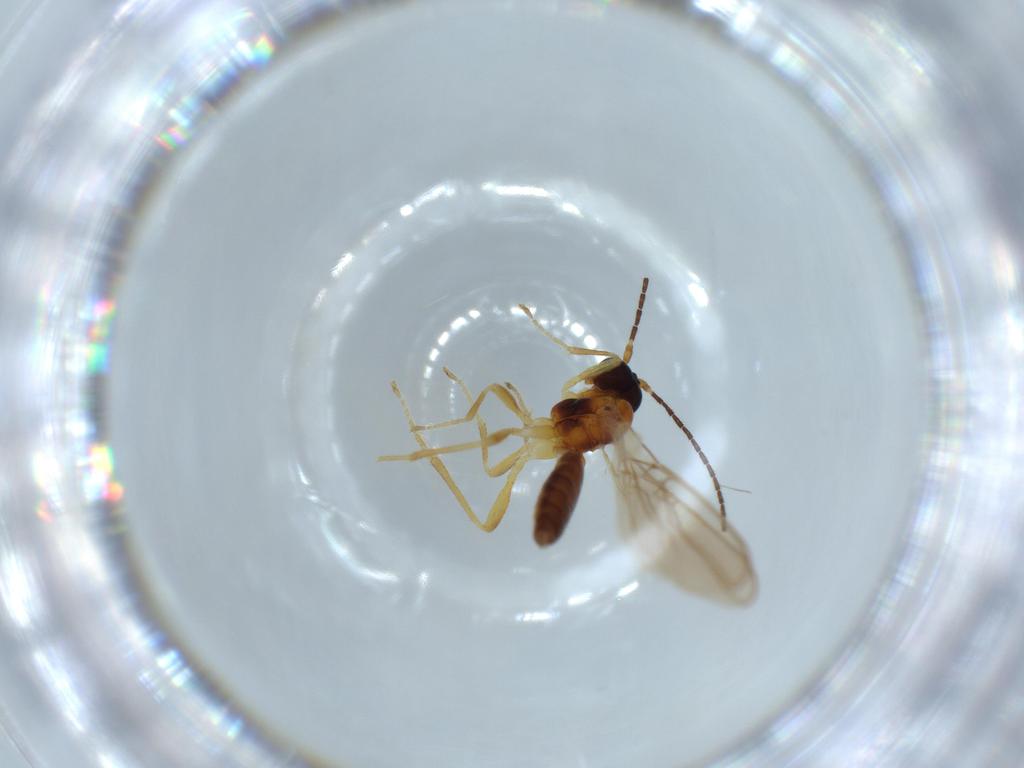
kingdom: Animalia
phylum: Arthropoda
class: Insecta
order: Hymenoptera
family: Braconidae
